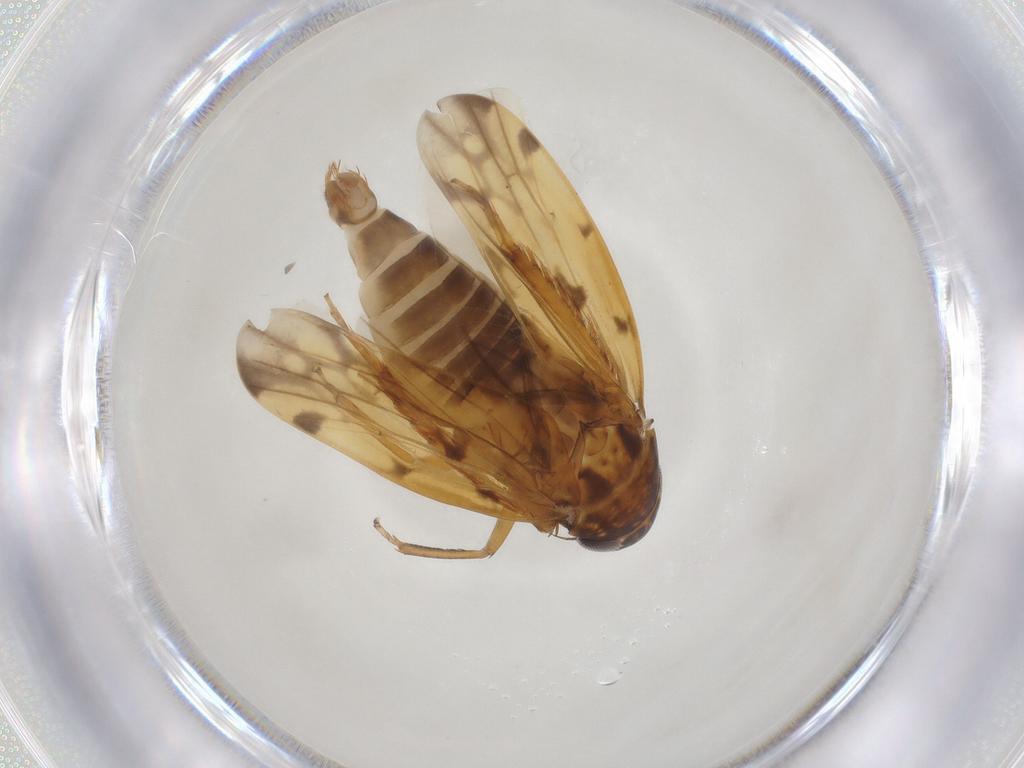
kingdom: Animalia
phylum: Arthropoda
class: Insecta
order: Hemiptera
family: Cicadellidae
